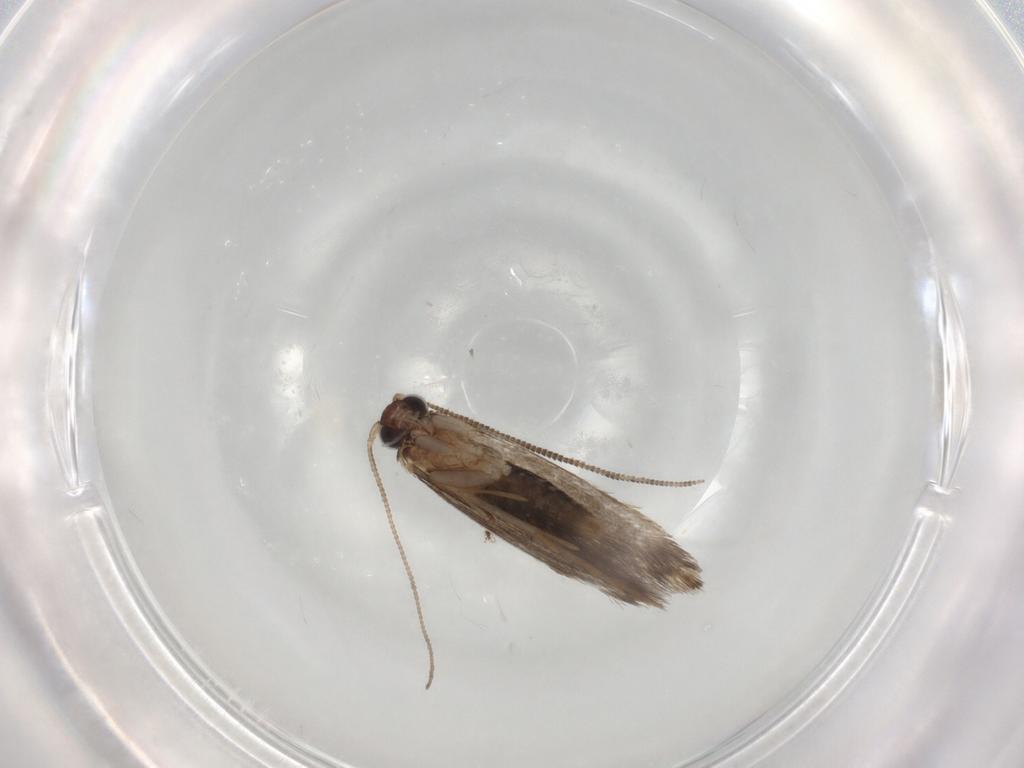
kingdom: Animalia
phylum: Arthropoda
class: Insecta
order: Lepidoptera
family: Tineidae
